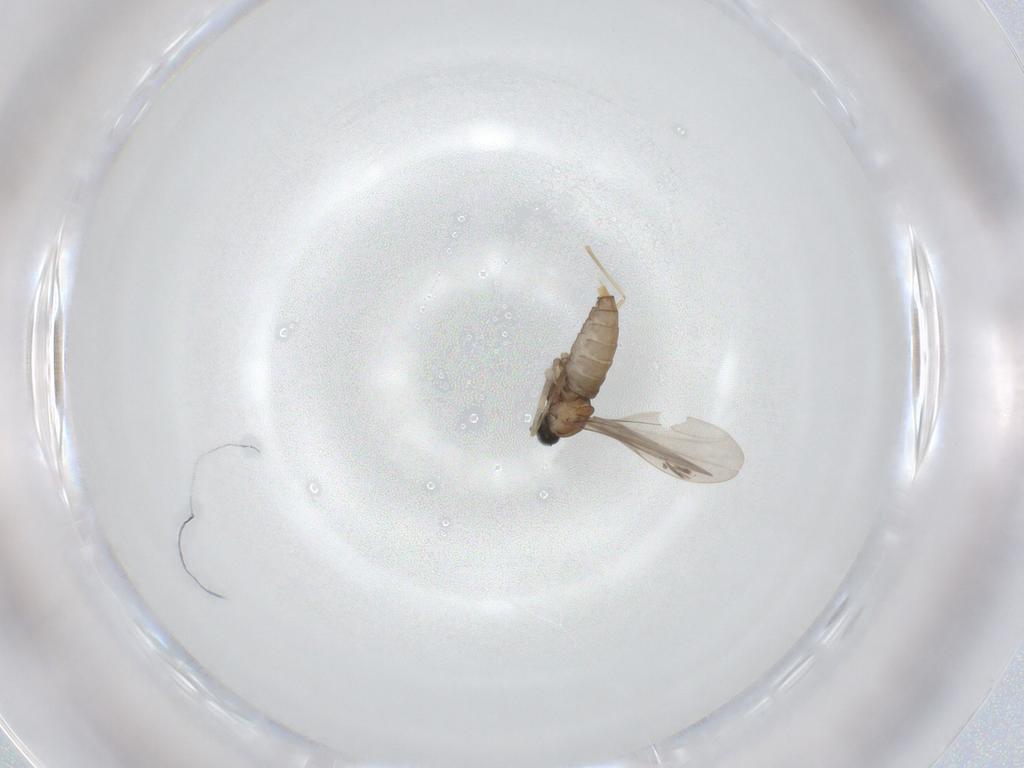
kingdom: Animalia
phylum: Arthropoda
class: Insecta
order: Diptera
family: Cecidomyiidae
